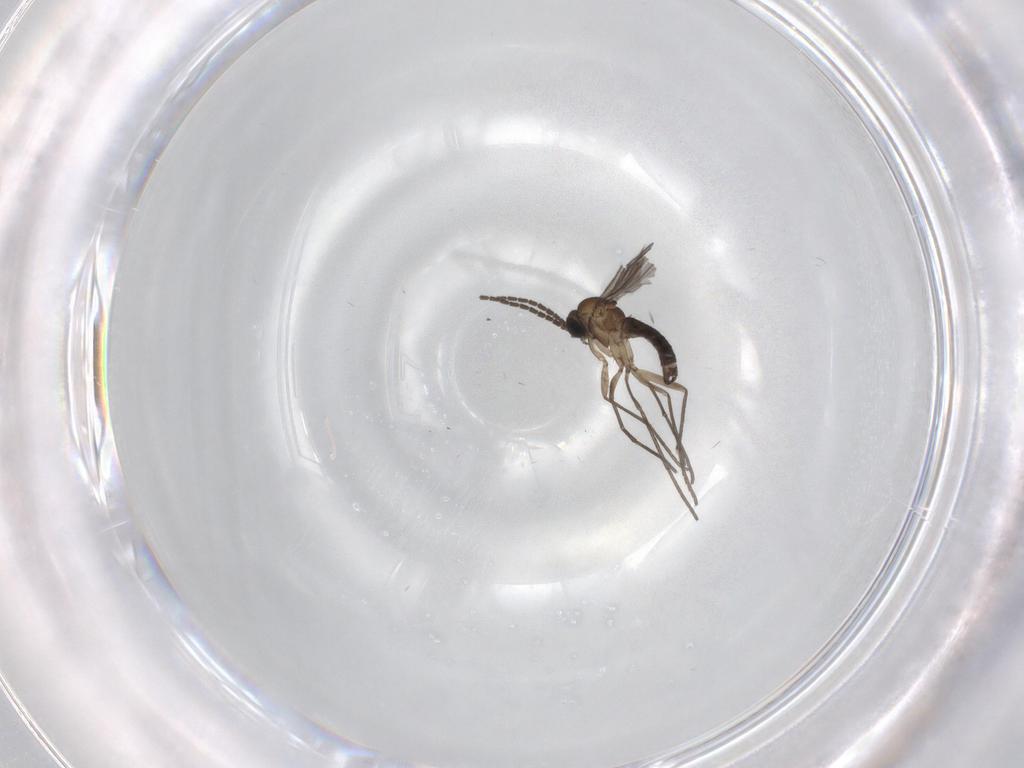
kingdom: Animalia
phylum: Arthropoda
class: Insecta
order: Diptera
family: Sciaridae
